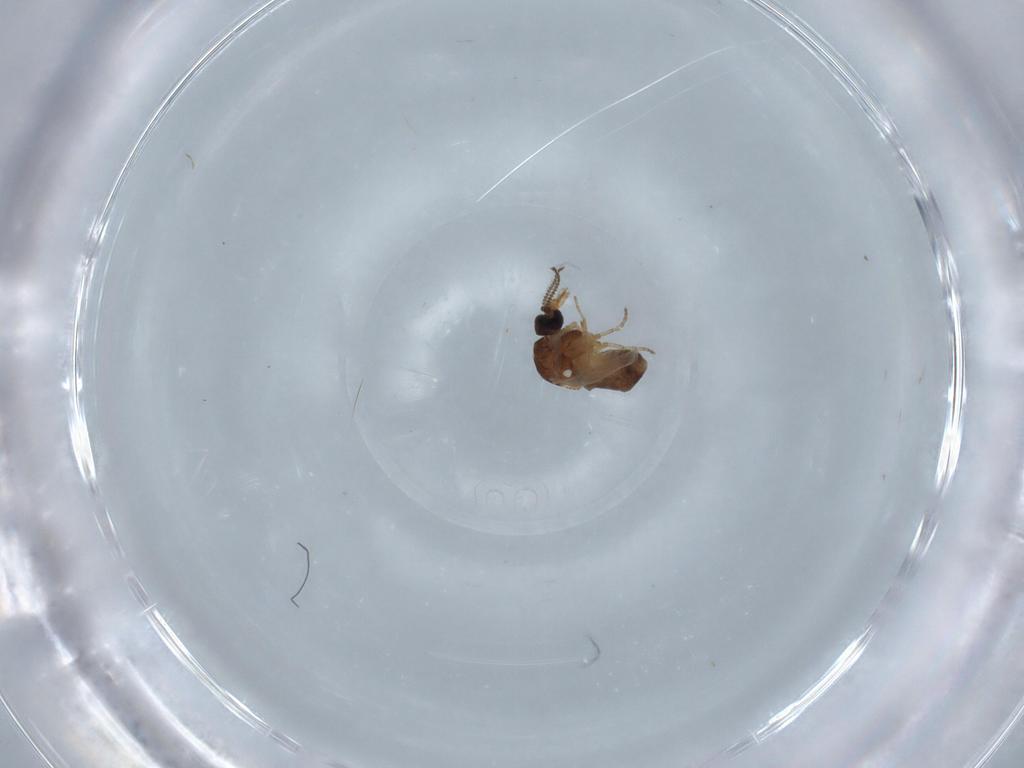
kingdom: Animalia
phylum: Arthropoda
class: Insecta
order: Diptera
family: Ceratopogonidae
